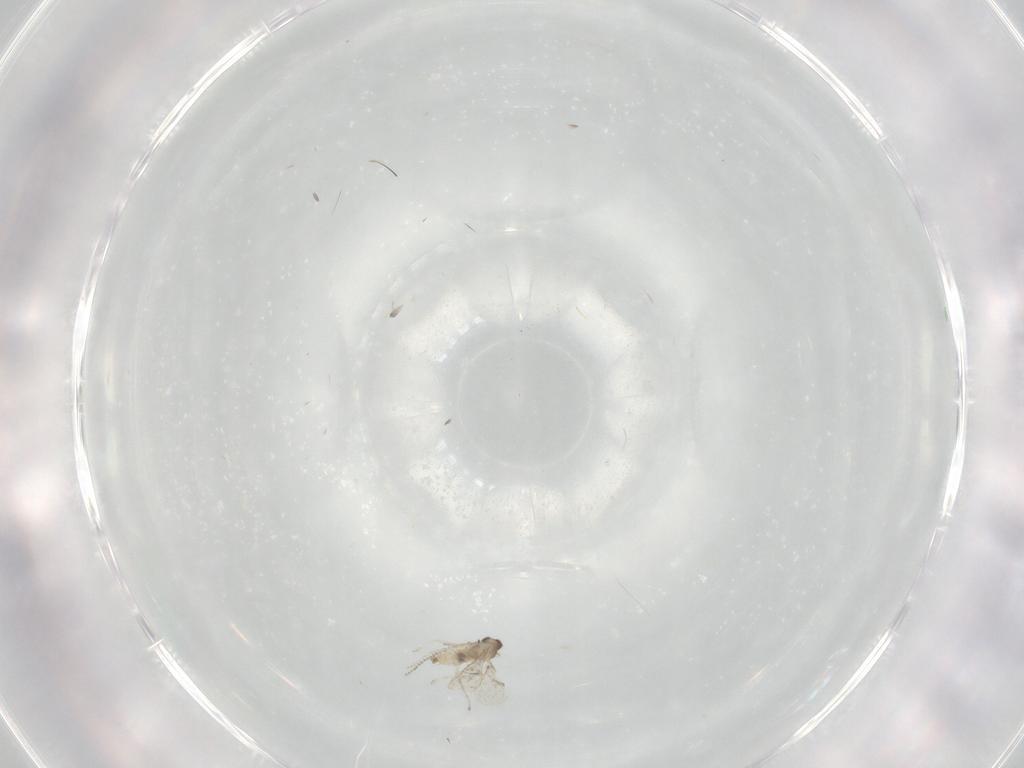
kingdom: Animalia
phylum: Arthropoda
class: Insecta
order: Diptera
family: Cecidomyiidae
